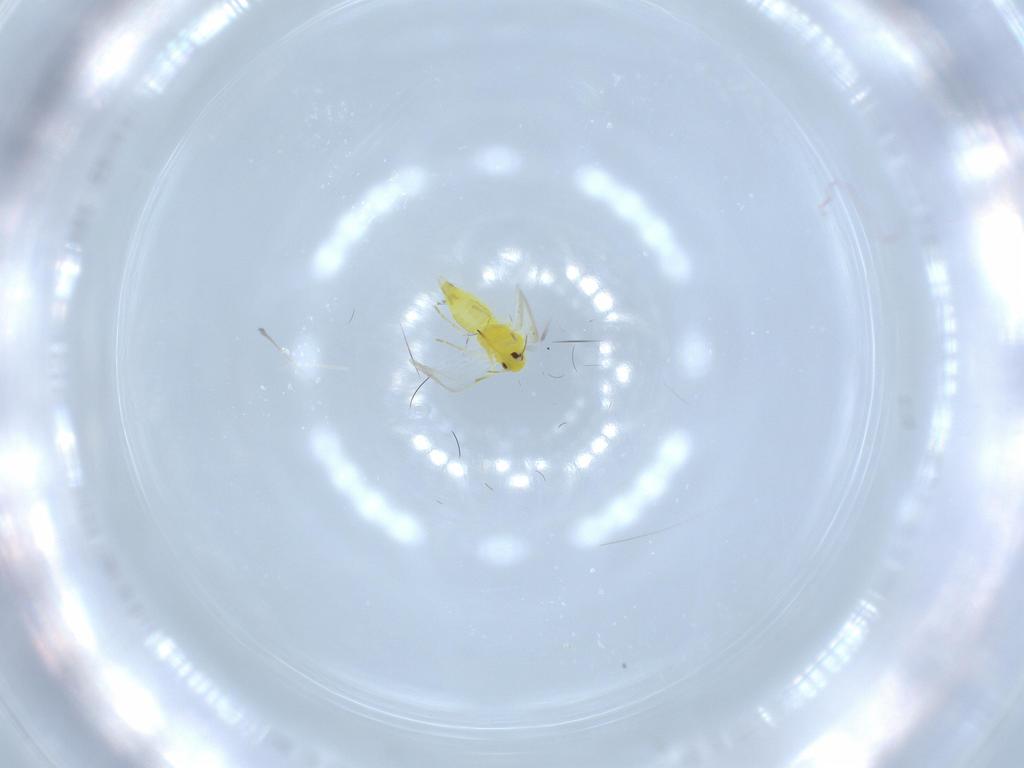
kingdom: Animalia
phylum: Arthropoda
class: Insecta
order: Hemiptera
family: Aleyrodidae
